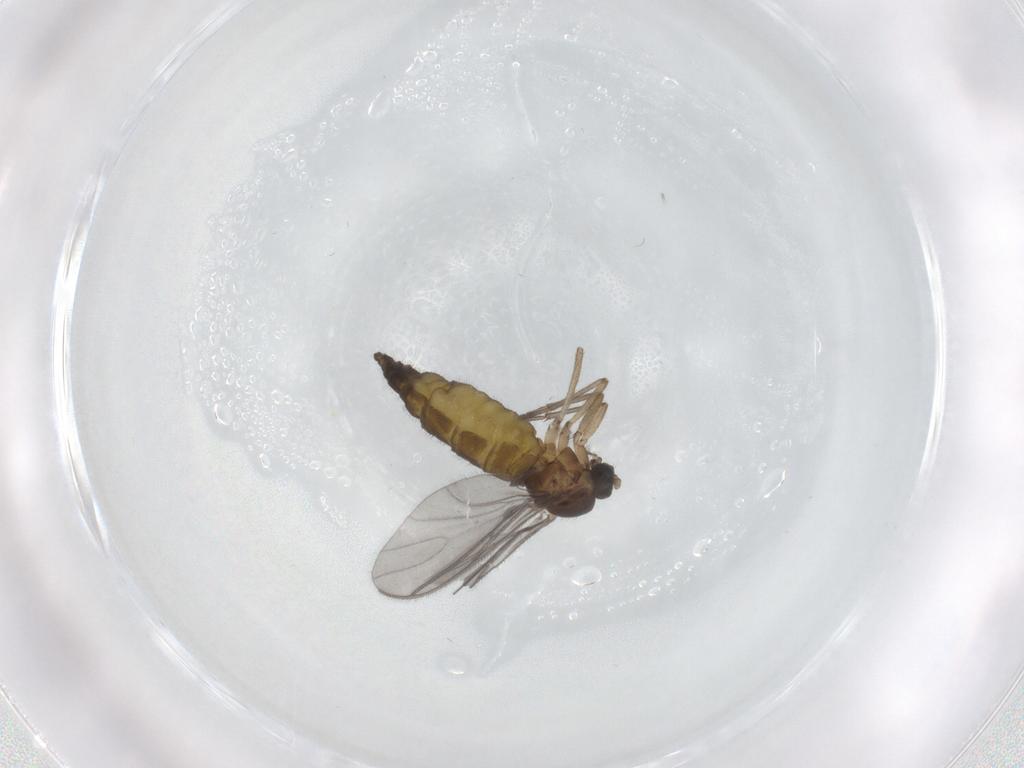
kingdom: Animalia
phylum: Arthropoda
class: Insecta
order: Diptera
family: Sciaridae
